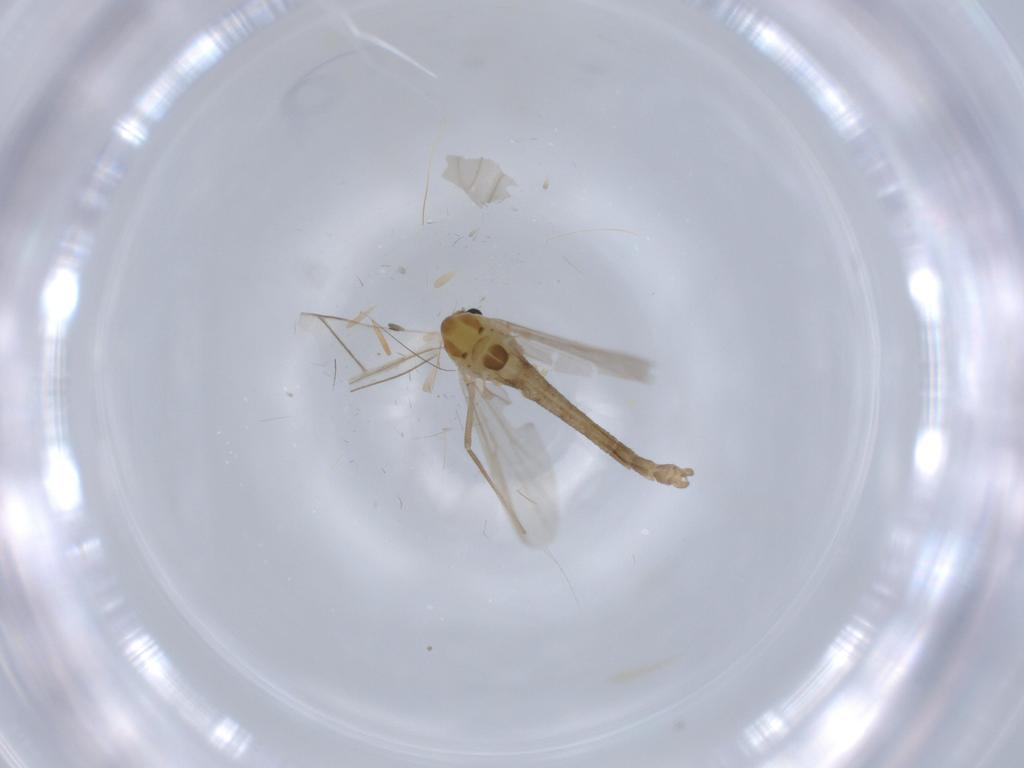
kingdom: Animalia
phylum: Arthropoda
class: Insecta
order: Diptera
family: Chironomidae
